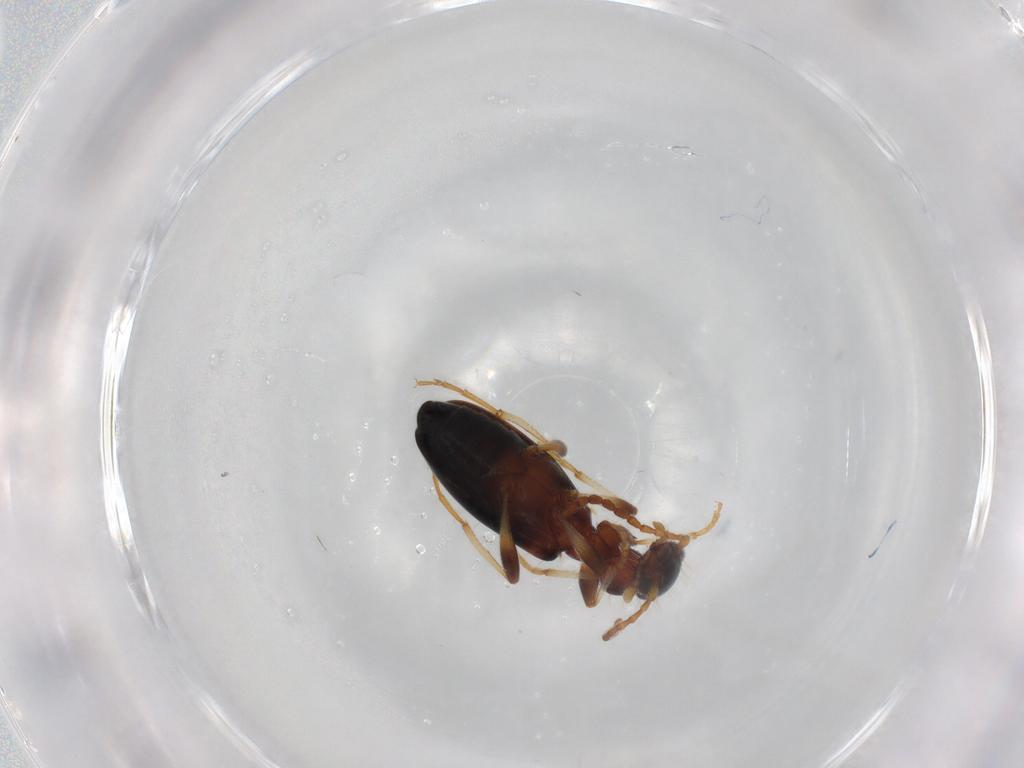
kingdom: Animalia
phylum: Arthropoda
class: Insecta
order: Coleoptera
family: Anthicidae
